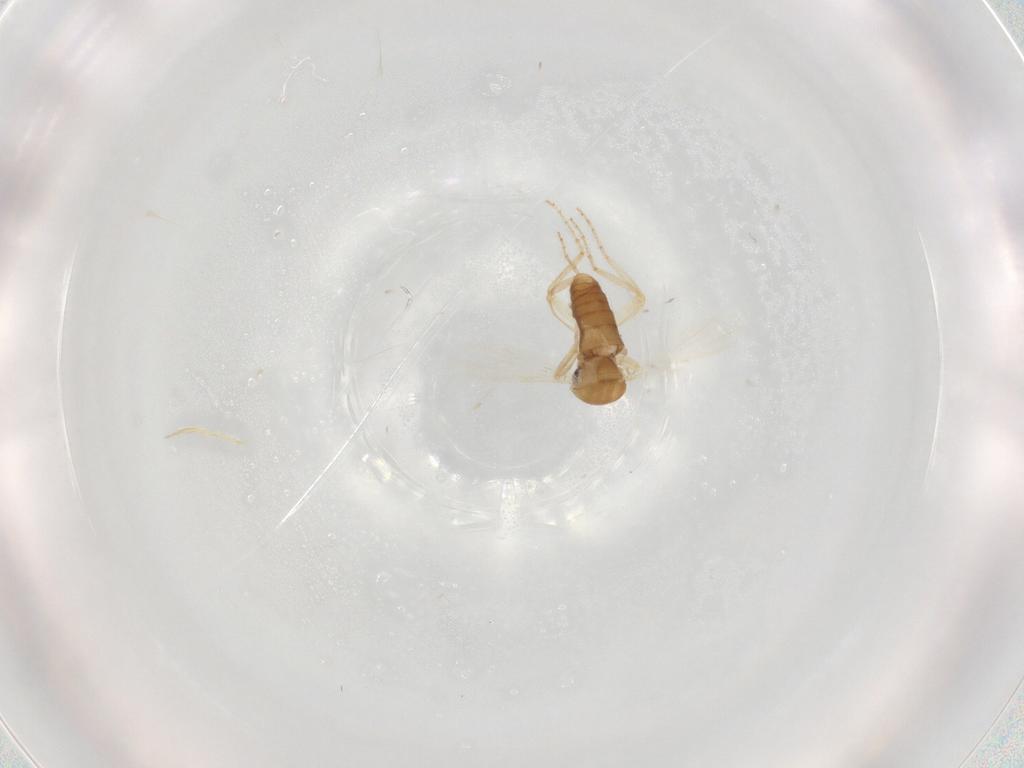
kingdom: Animalia
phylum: Arthropoda
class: Insecta
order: Diptera
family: Ceratopogonidae
